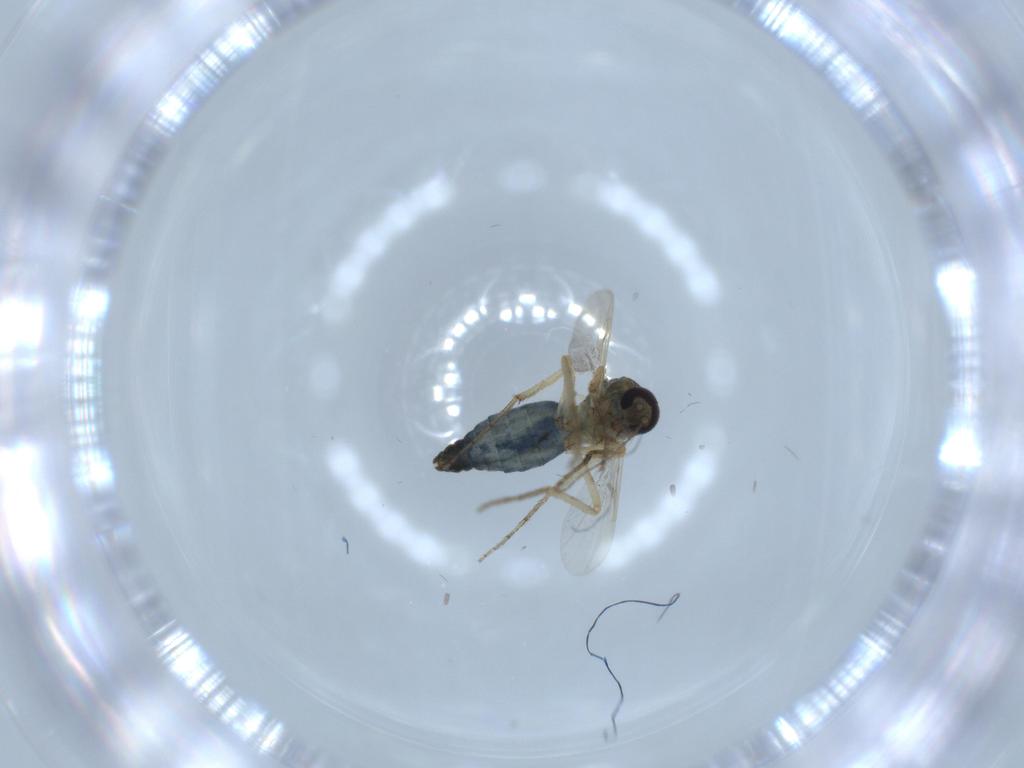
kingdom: Animalia
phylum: Arthropoda
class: Insecta
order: Diptera
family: Ceratopogonidae
